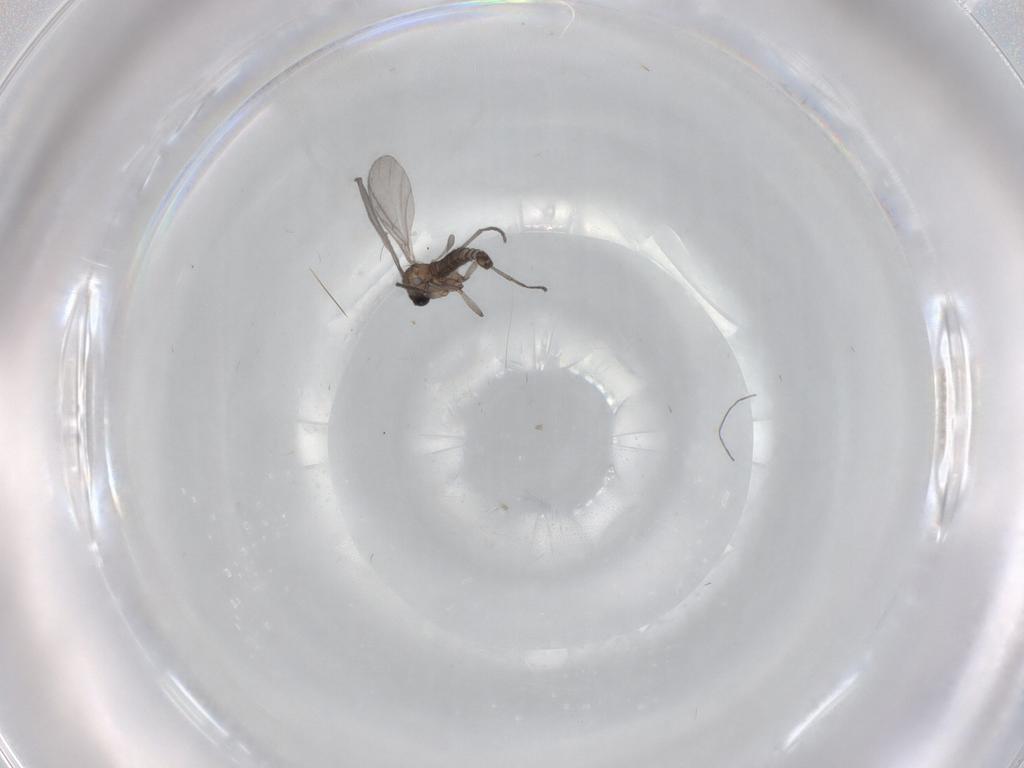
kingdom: Animalia
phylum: Arthropoda
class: Insecta
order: Diptera
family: Sciaridae
